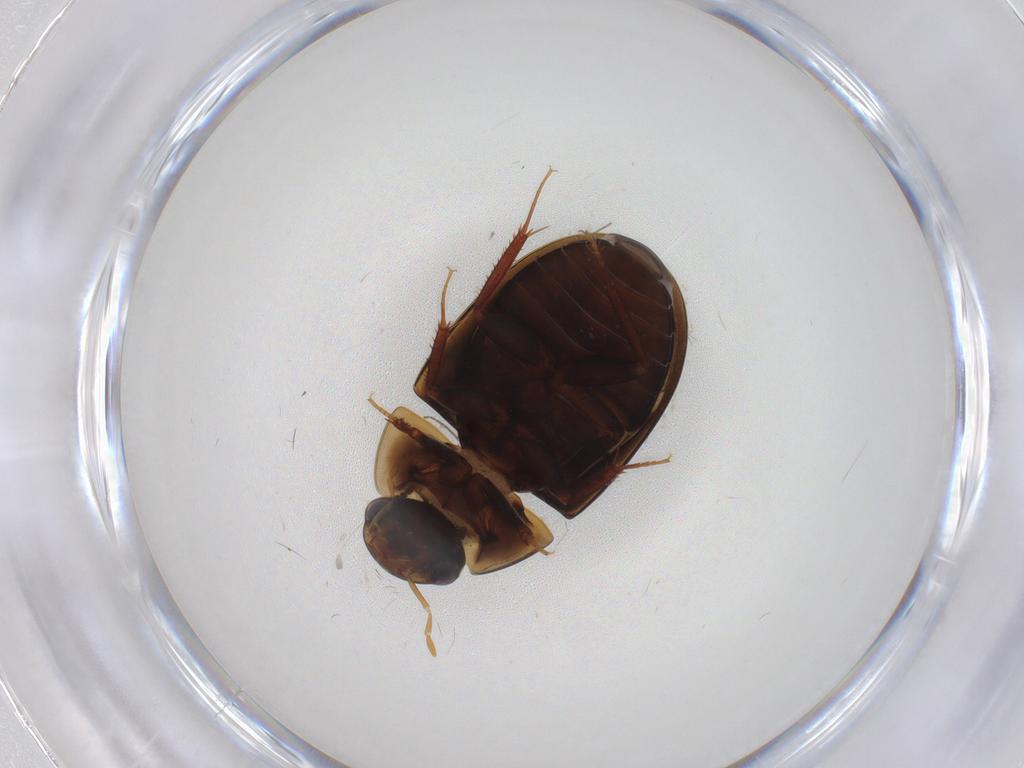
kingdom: Animalia
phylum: Arthropoda
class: Insecta
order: Coleoptera
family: Hydrophilidae
